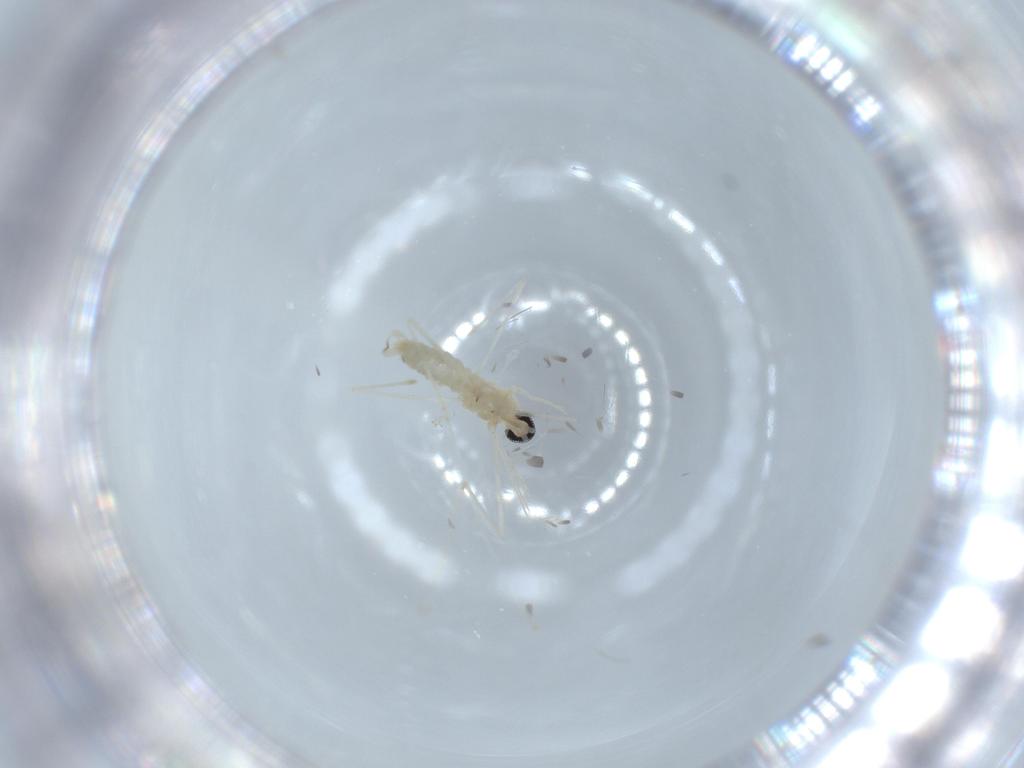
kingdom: Animalia
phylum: Arthropoda
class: Insecta
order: Diptera
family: Cecidomyiidae
